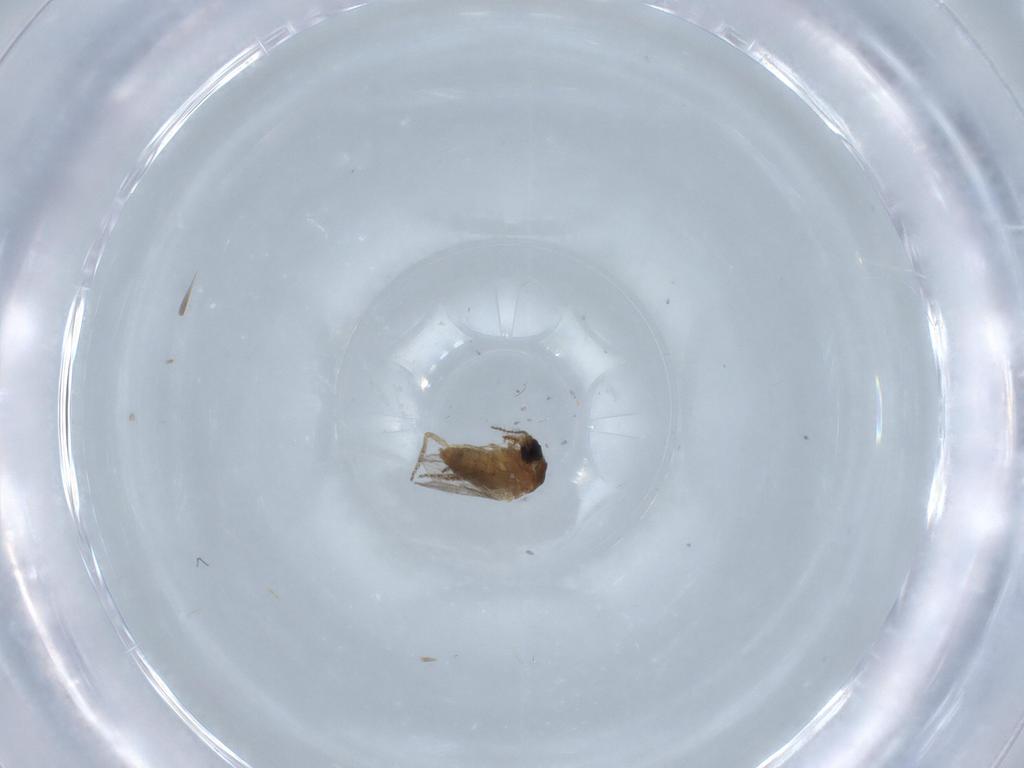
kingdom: Animalia
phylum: Arthropoda
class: Insecta
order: Diptera
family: Ceratopogonidae
